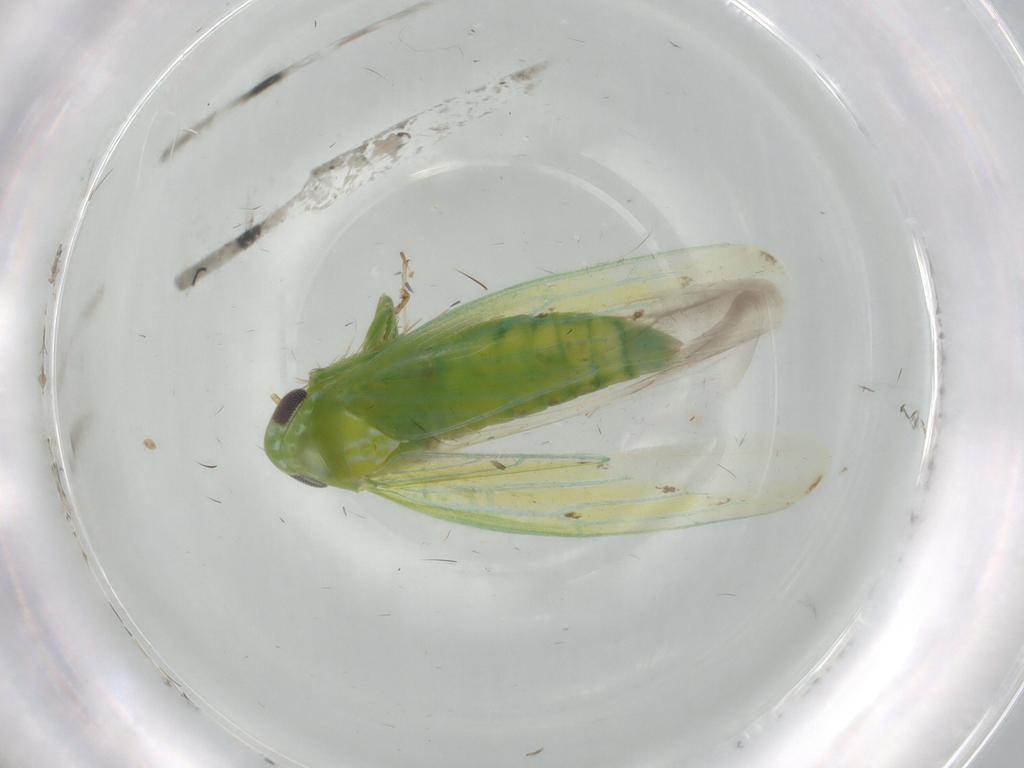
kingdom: Animalia
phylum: Arthropoda
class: Insecta
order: Hemiptera
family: Cicadellidae
